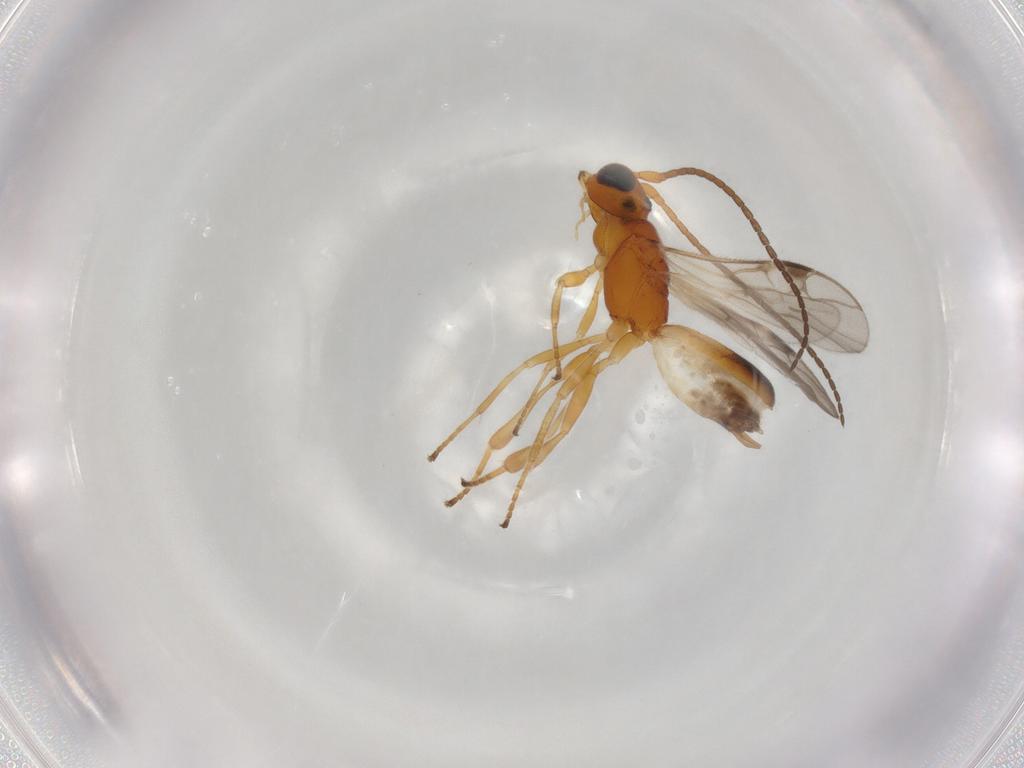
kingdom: Animalia
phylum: Arthropoda
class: Insecta
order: Hymenoptera
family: Braconidae
